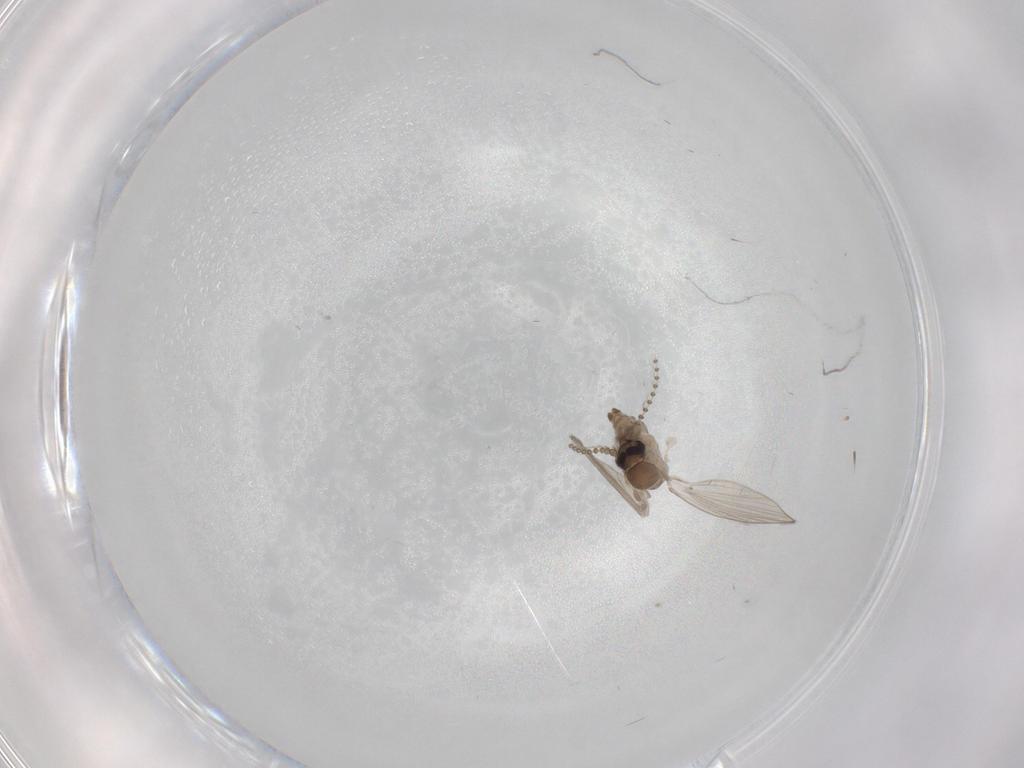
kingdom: Animalia
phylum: Arthropoda
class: Insecta
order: Diptera
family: Psychodidae
